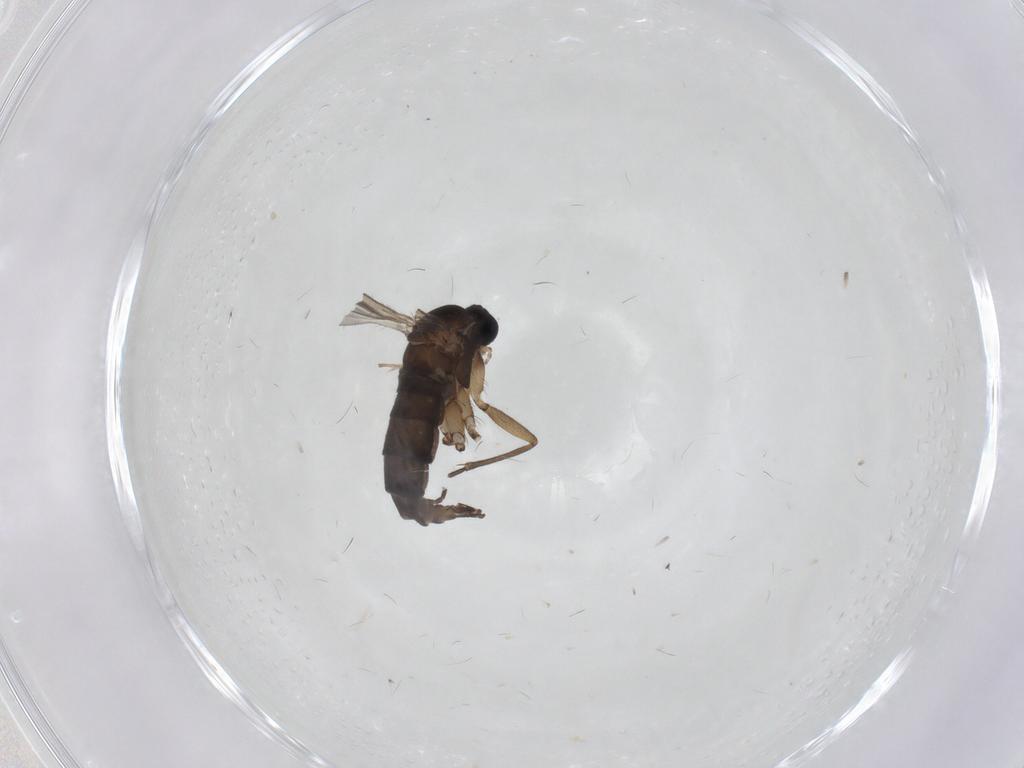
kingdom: Animalia
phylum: Arthropoda
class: Insecta
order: Diptera
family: Sciaridae
